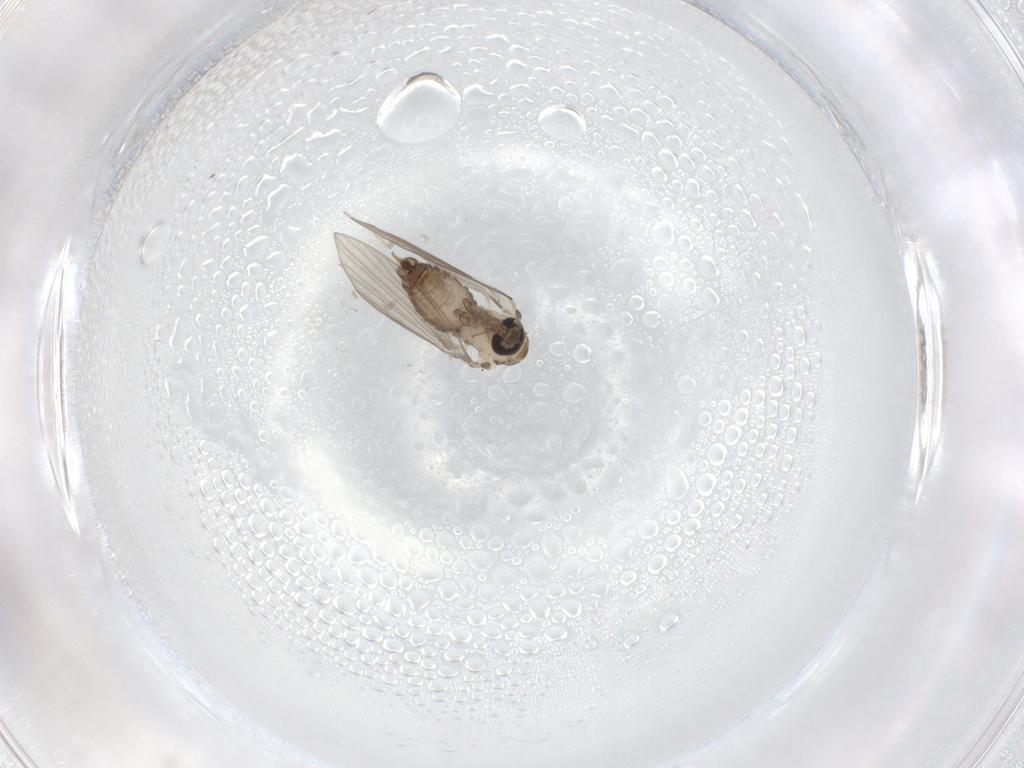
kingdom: Animalia
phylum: Arthropoda
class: Insecta
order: Diptera
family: Psychodidae
